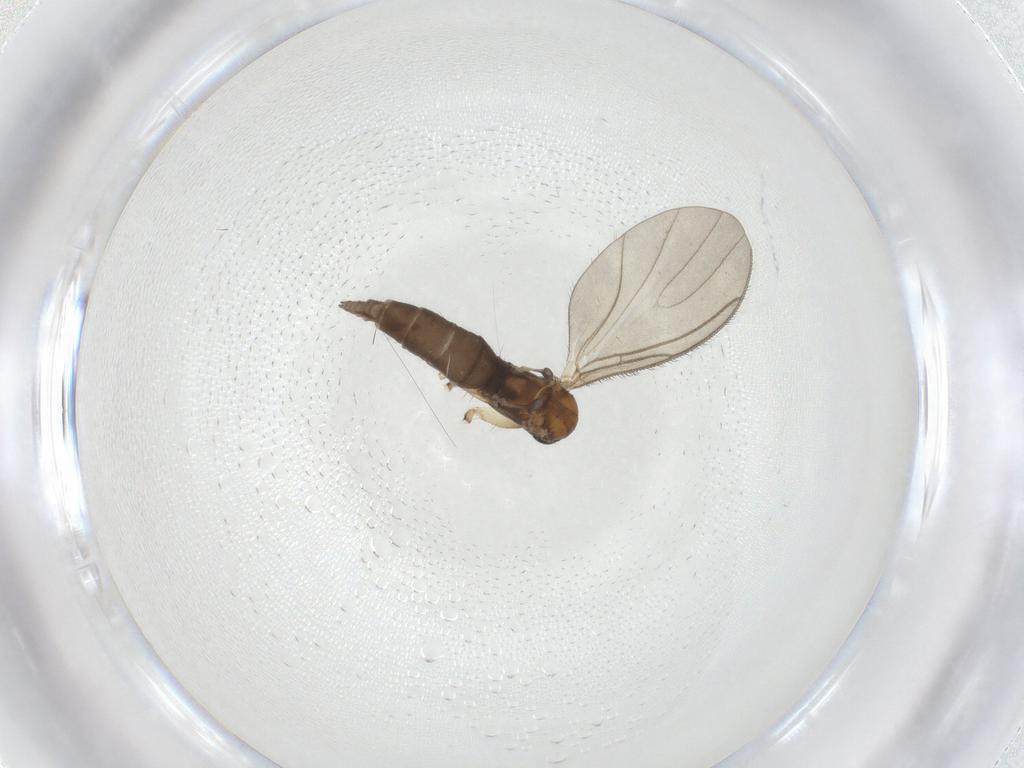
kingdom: Animalia
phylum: Arthropoda
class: Insecta
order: Diptera
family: Sciaridae
